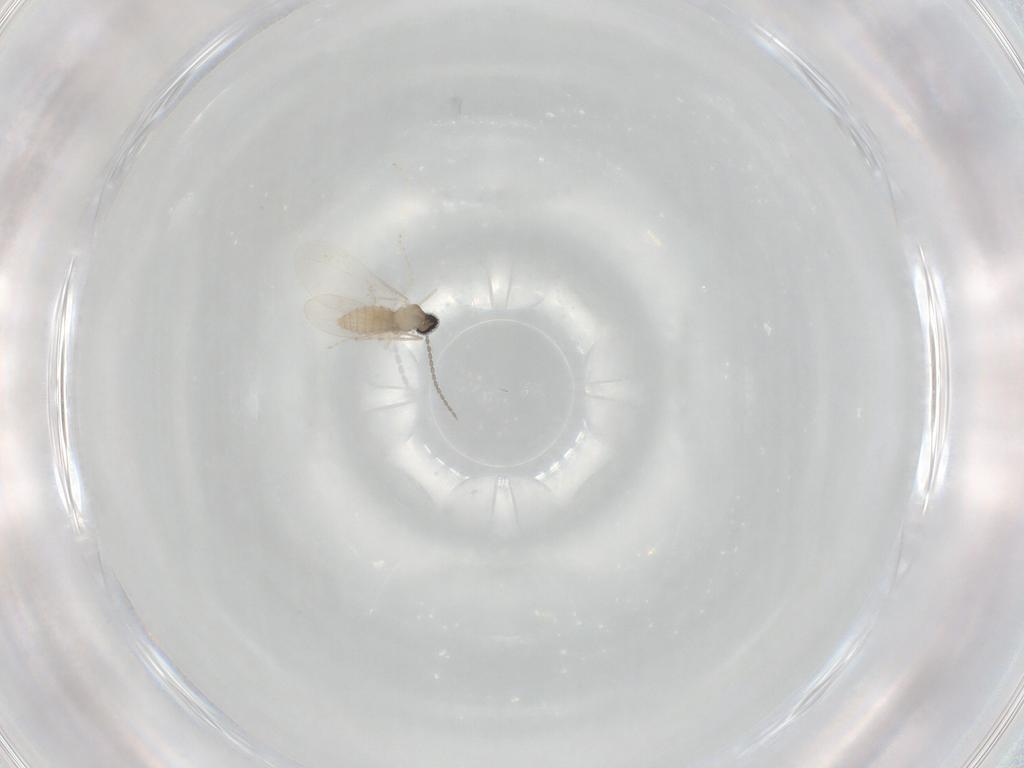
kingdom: Animalia
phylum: Arthropoda
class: Insecta
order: Diptera
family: Cecidomyiidae
